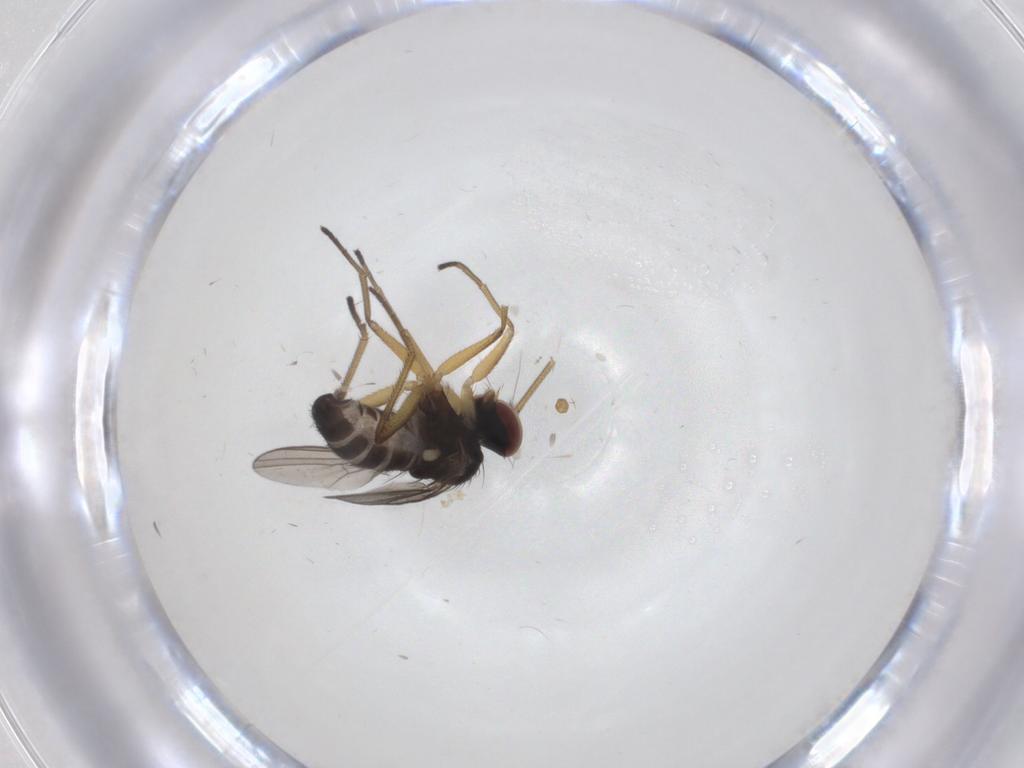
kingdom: Animalia
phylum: Arthropoda
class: Insecta
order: Diptera
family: Dolichopodidae
